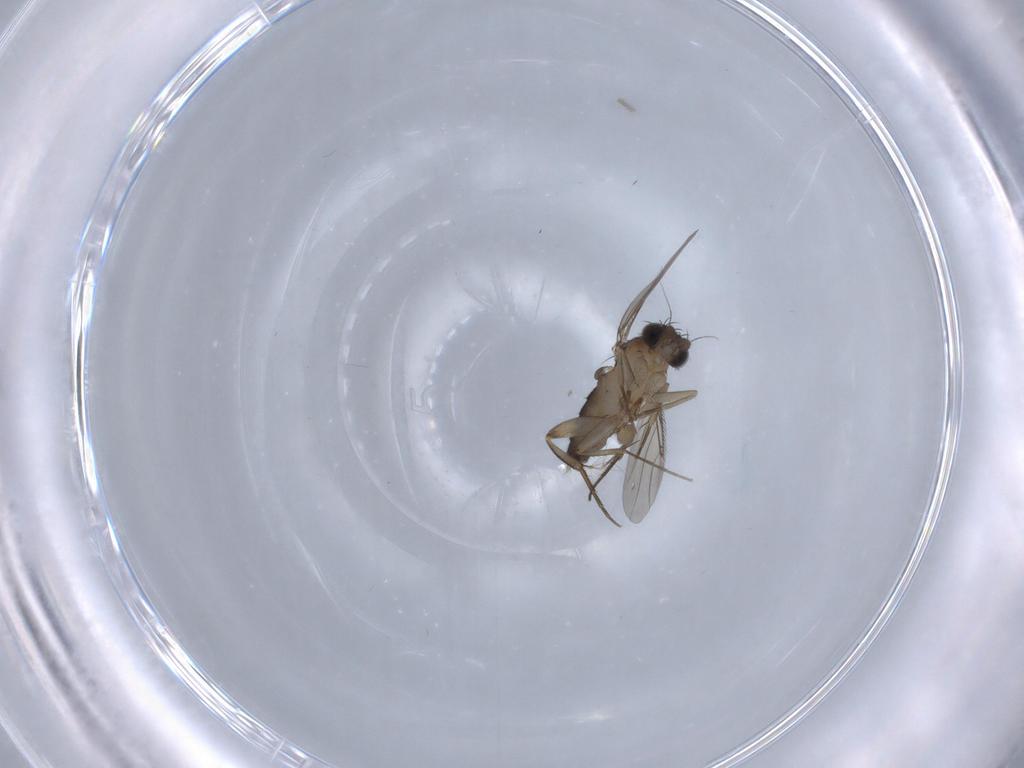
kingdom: Animalia
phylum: Arthropoda
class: Insecta
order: Diptera
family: Phoridae
